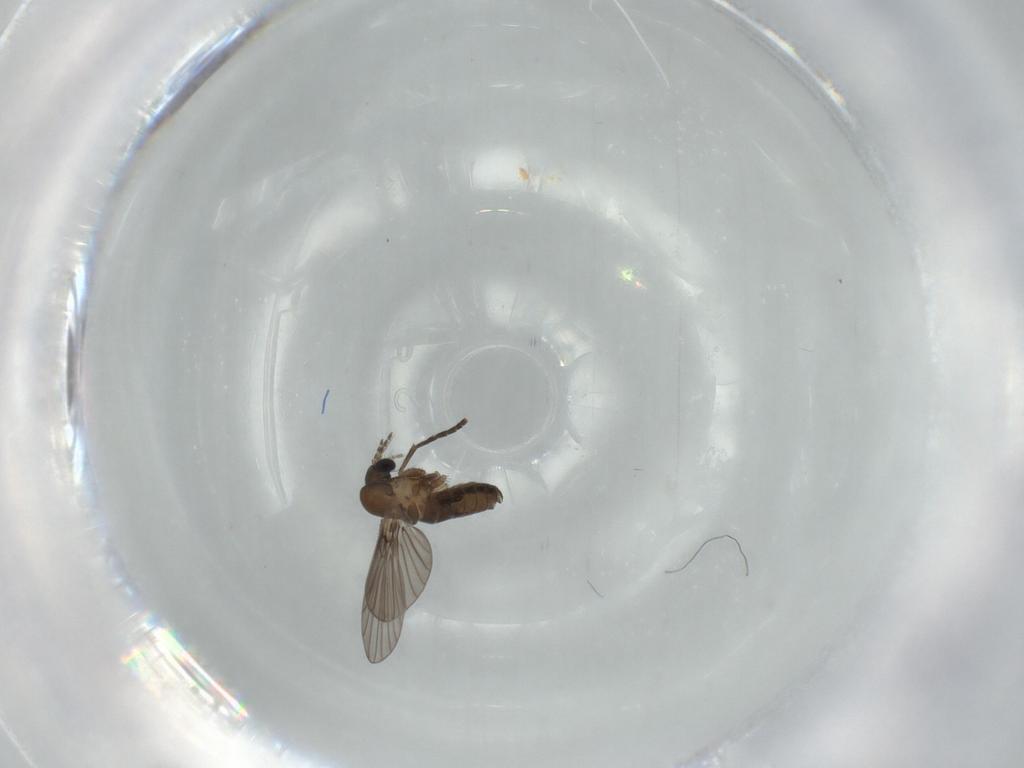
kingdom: Animalia
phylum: Arthropoda
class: Insecta
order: Diptera
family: Psychodidae
